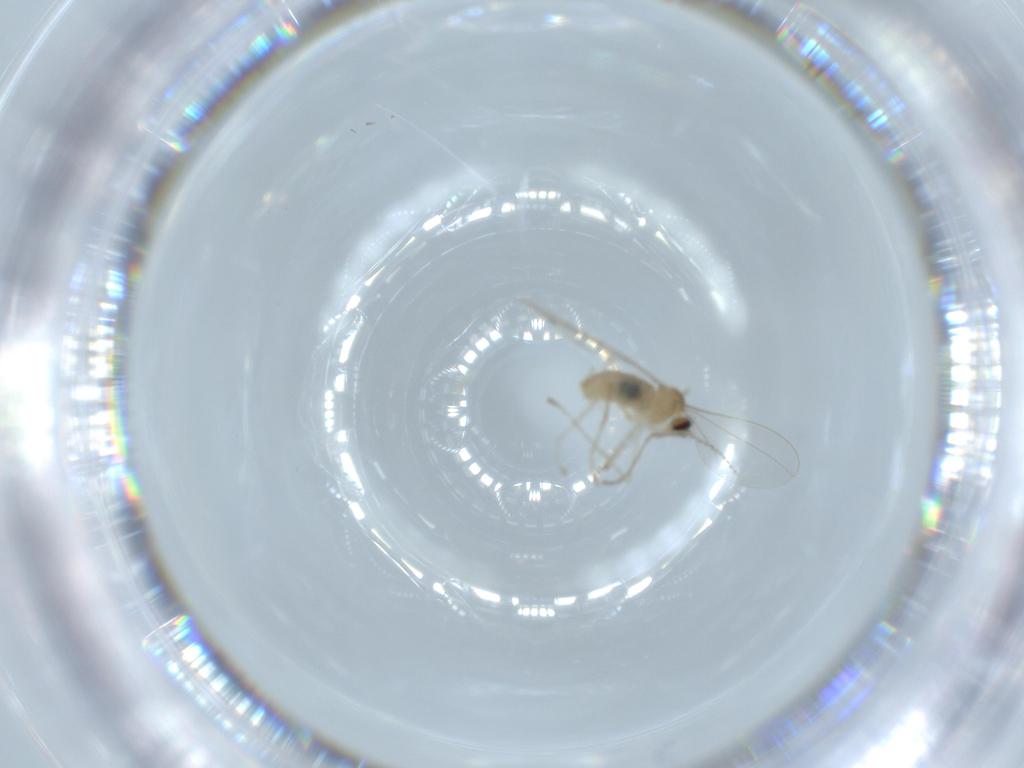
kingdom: Animalia
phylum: Arthropoda
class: Insecta
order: Diptera
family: Cecidomyiidae
